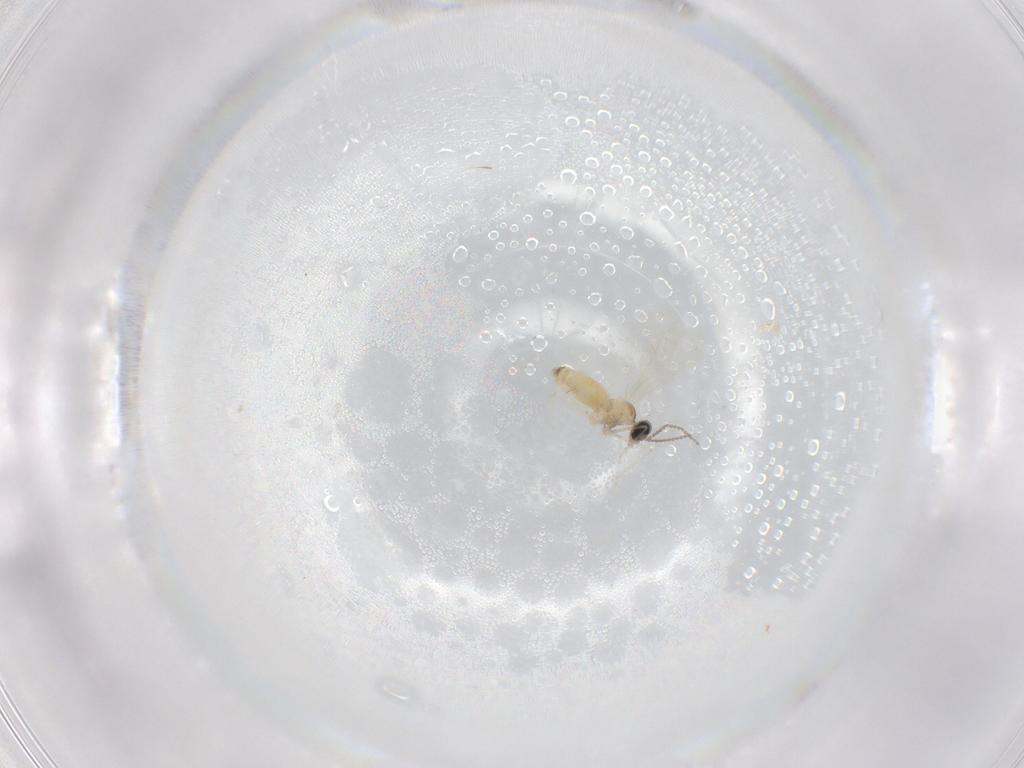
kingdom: Animalia
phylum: Arthropoda
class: Insecta
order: Diptera
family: Cecidomyiidae
